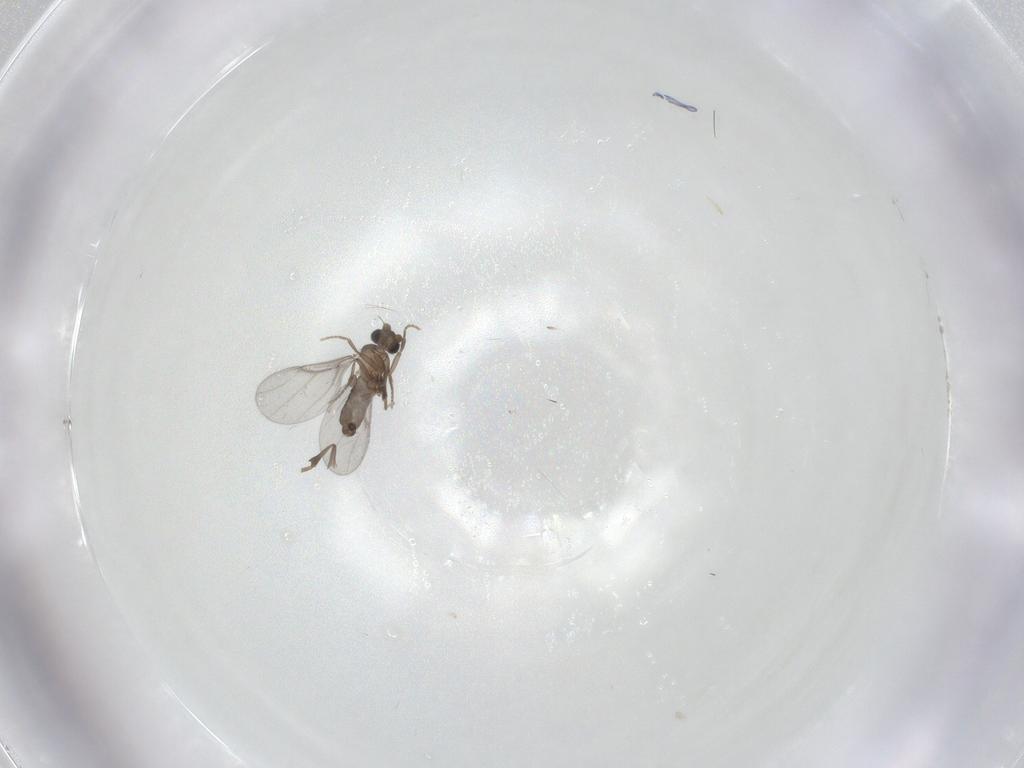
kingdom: Animalia
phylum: Arthropoda
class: Insecta
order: Diptera
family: Phoridae
